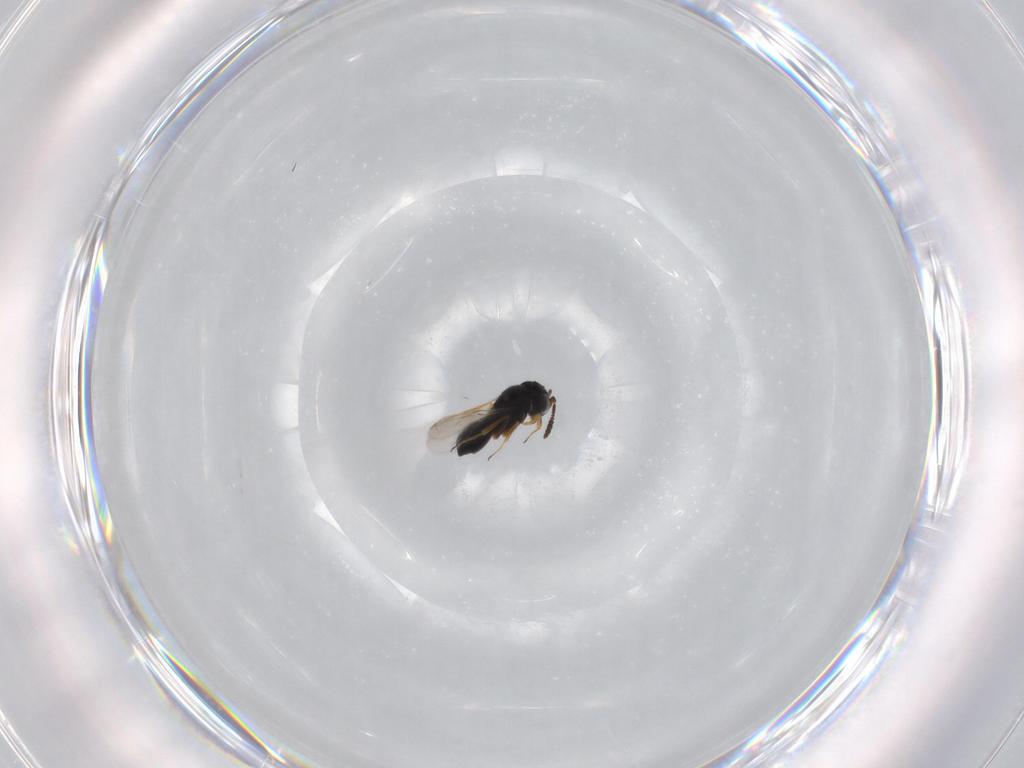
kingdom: Animalia
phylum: Arthropoda
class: Insecta
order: Hymenoptera
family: Scelionidae
